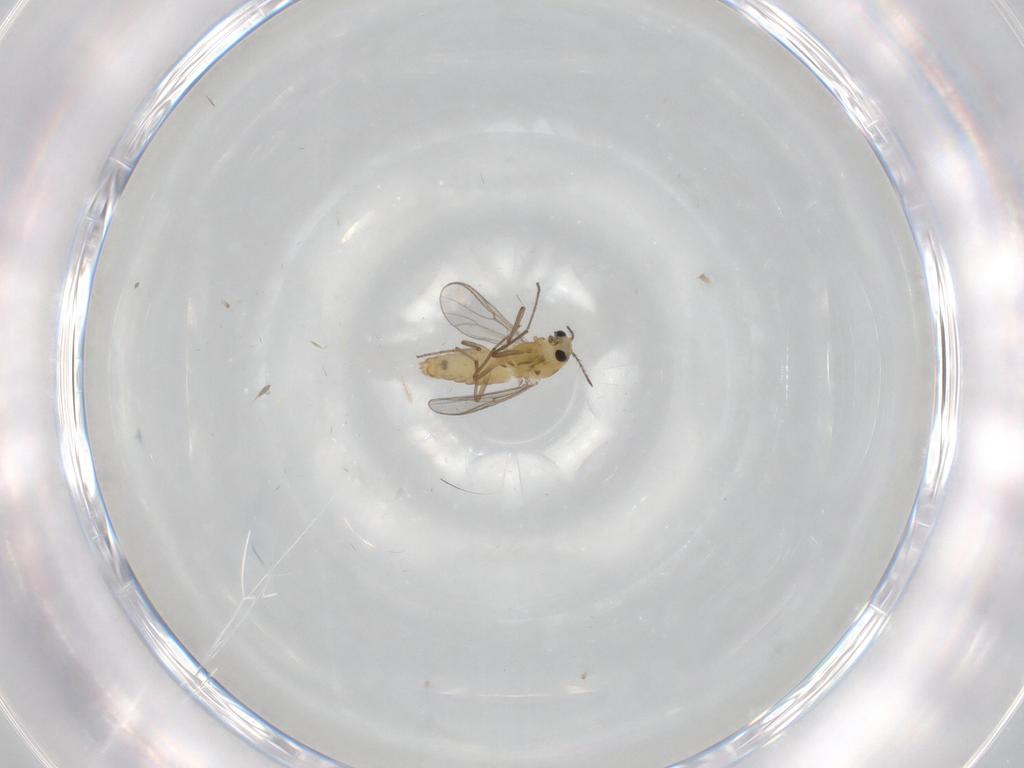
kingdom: Animalia
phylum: Arthropoda
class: Insecta
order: Diptera
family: Chironomidae
